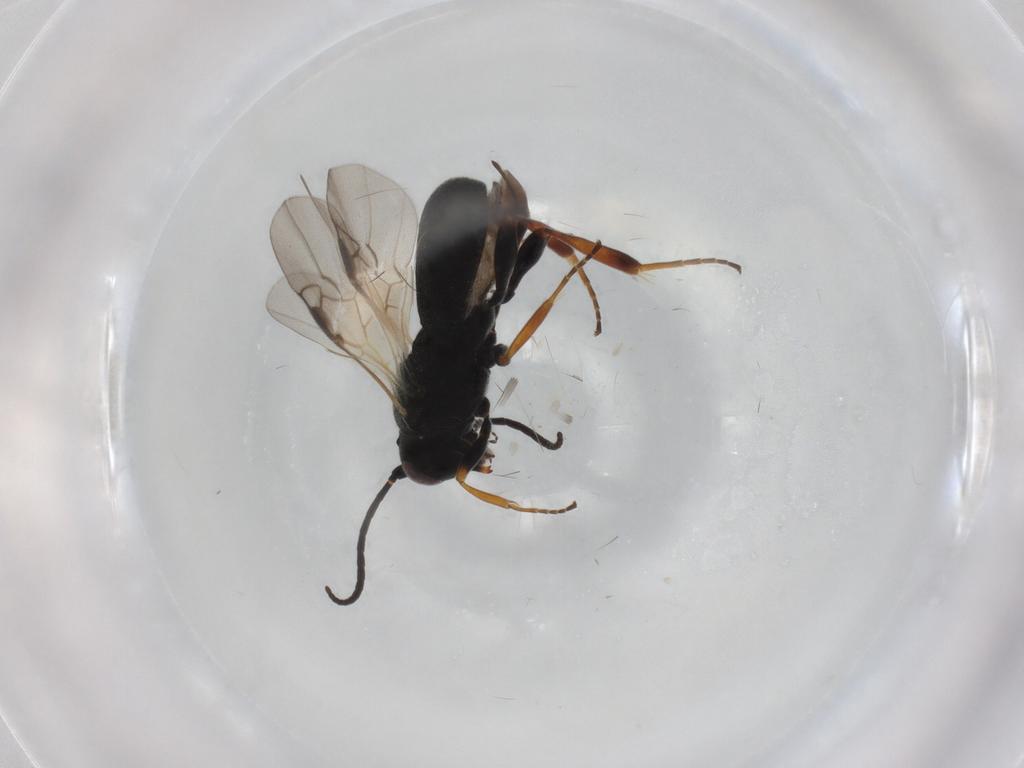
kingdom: Animalia
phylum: Arthropoda
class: Insecta
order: Hymenoptera
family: Braconidae
